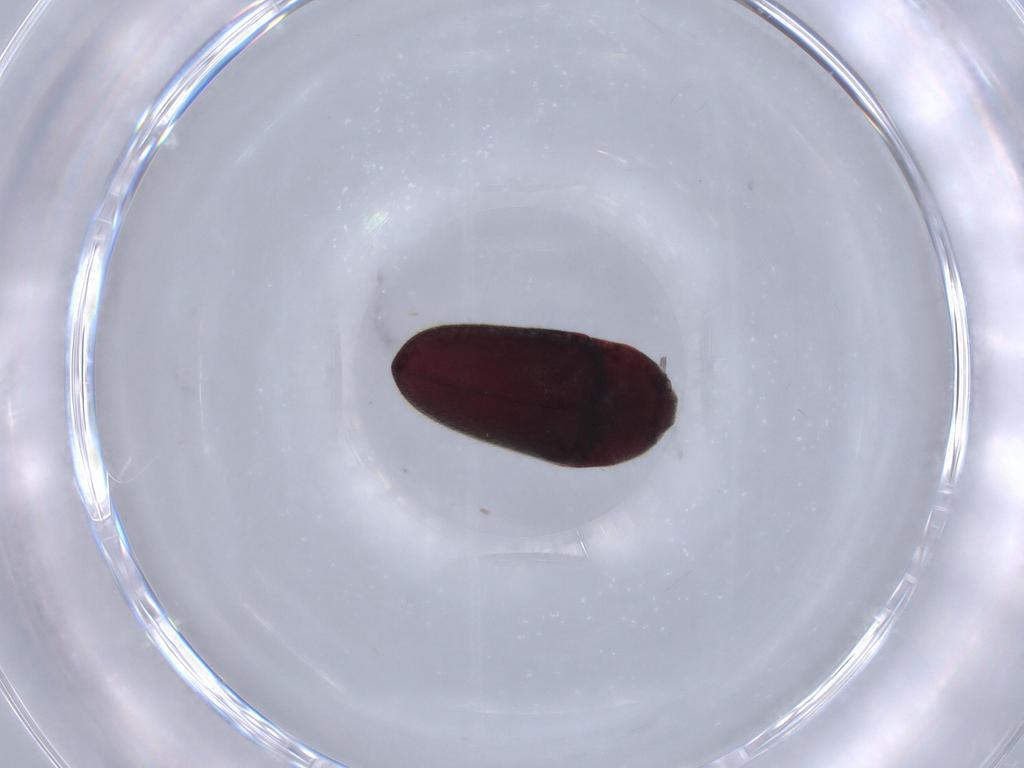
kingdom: Animalia
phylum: Arthropoda
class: Insecta
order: Coleoptera
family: Throscidae
